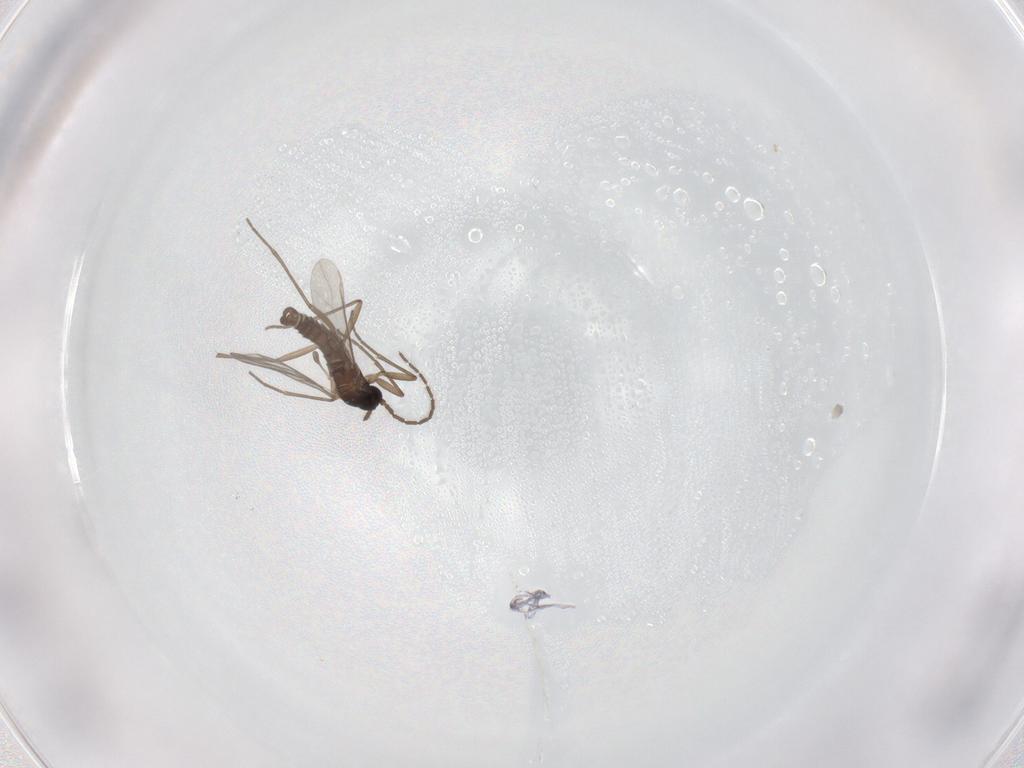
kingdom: Animalia
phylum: Arthropoda
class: Insecta
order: Diptera
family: Sciaridae
